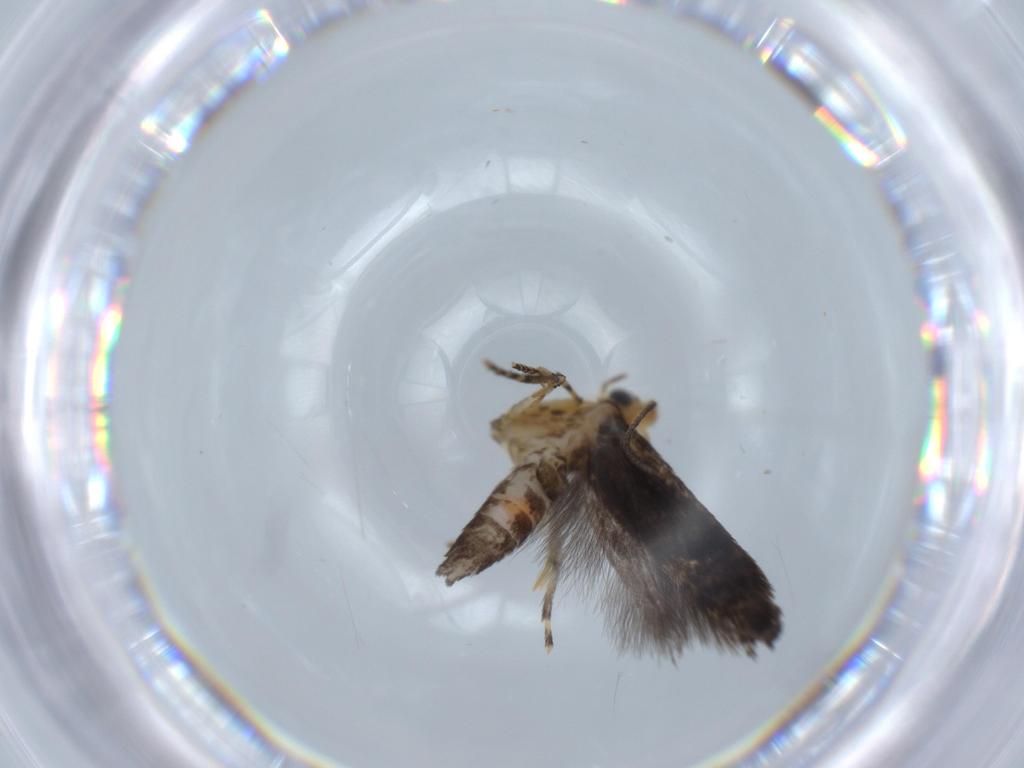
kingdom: Animalia
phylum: Arthropoda
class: Insecta
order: Lepidoptera
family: Argyresthiidae
